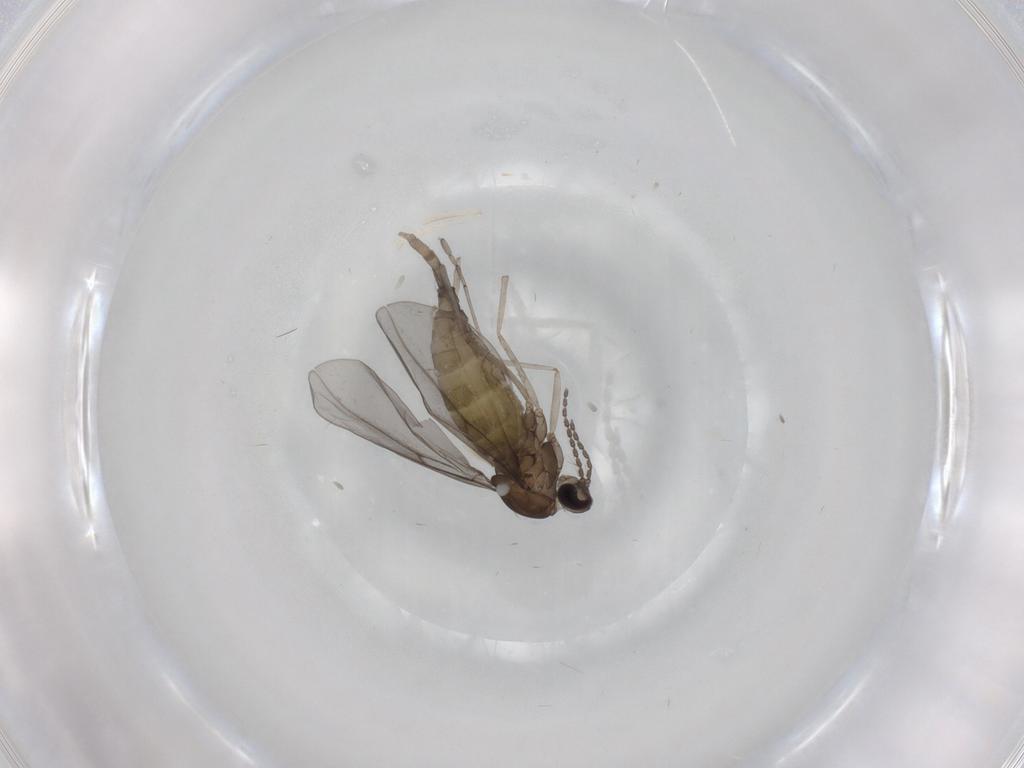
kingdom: Animalia
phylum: Arthropoda
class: Insecta
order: Diptera
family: Cecidomyiidae
